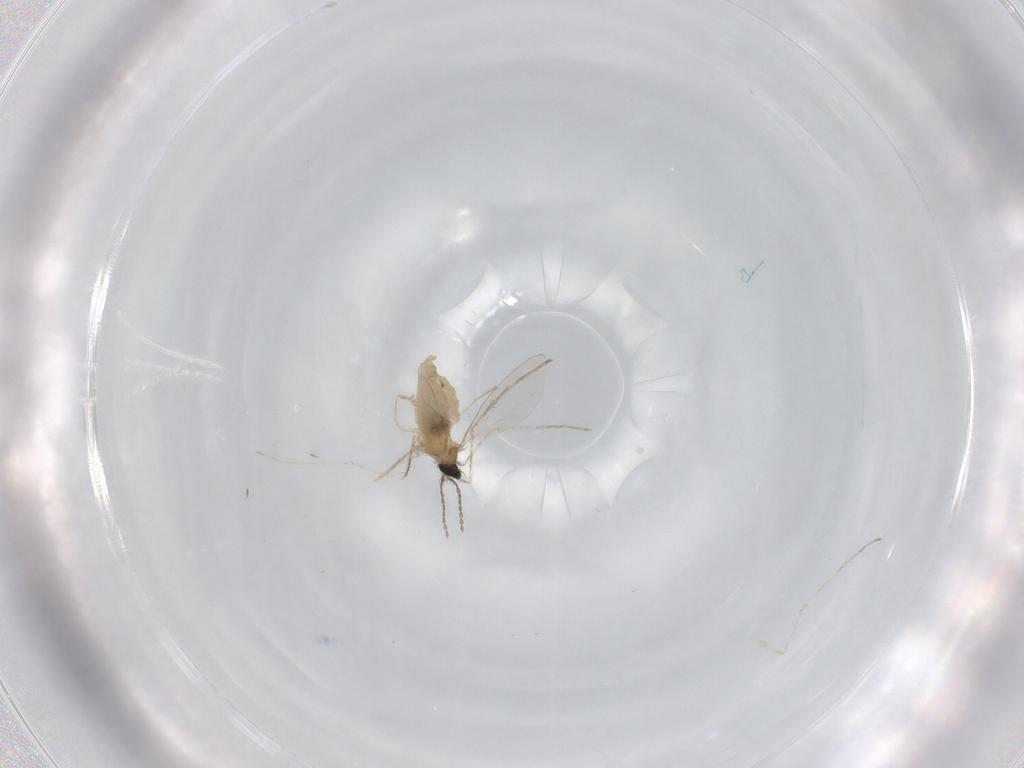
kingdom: Animalia
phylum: Arthropoda
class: Insecta
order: Diptera
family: Cecidomyiidae
